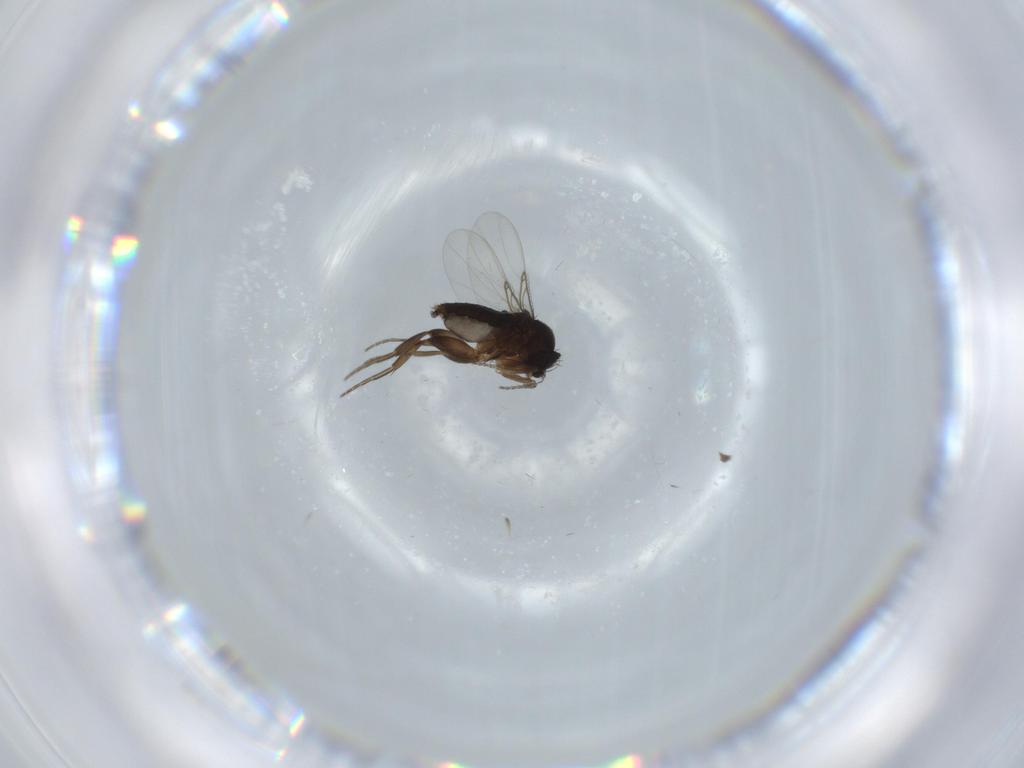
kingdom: Animalia
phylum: Arthropoda
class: Insecta
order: Diptera
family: Phoridae
